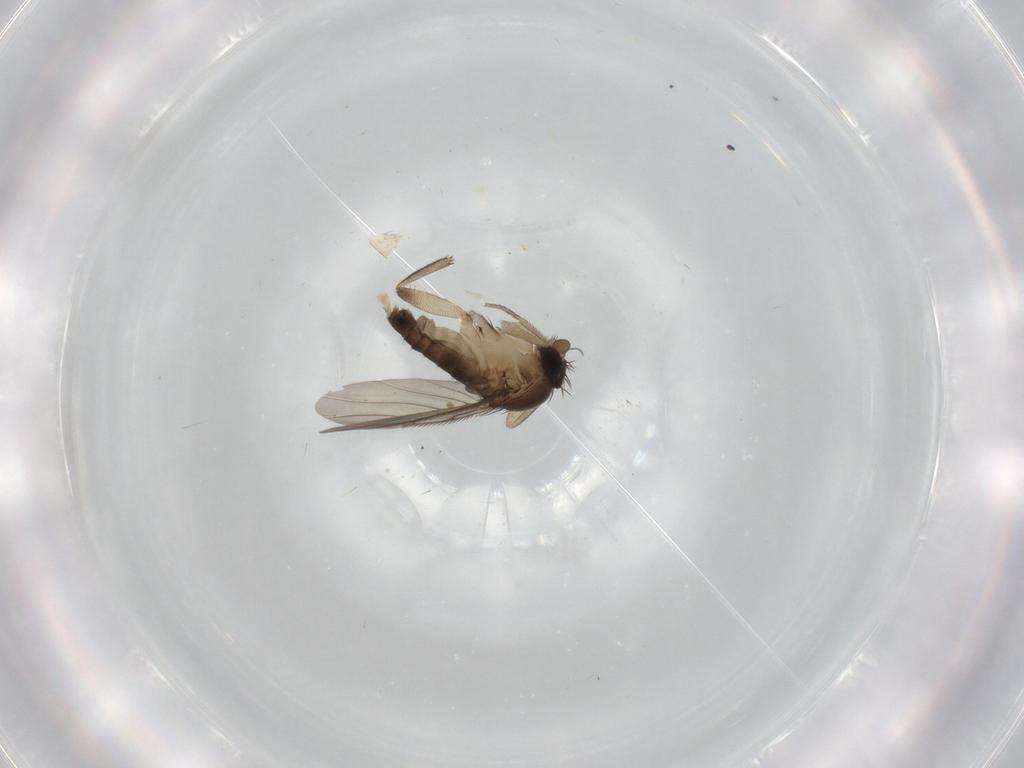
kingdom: Animalia
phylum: Arthropoda
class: Insecta
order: Diptera
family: Phoridae
